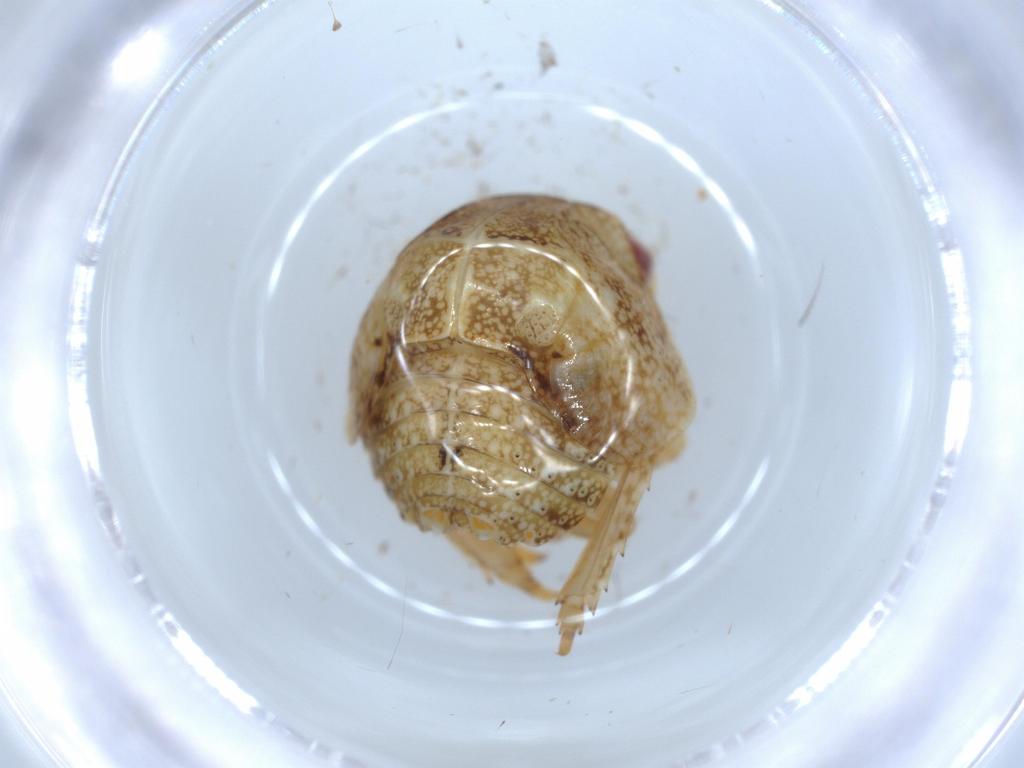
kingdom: Animalia
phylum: Arthropoda
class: Insecta
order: Hemiptera
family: Acanaloniidae
